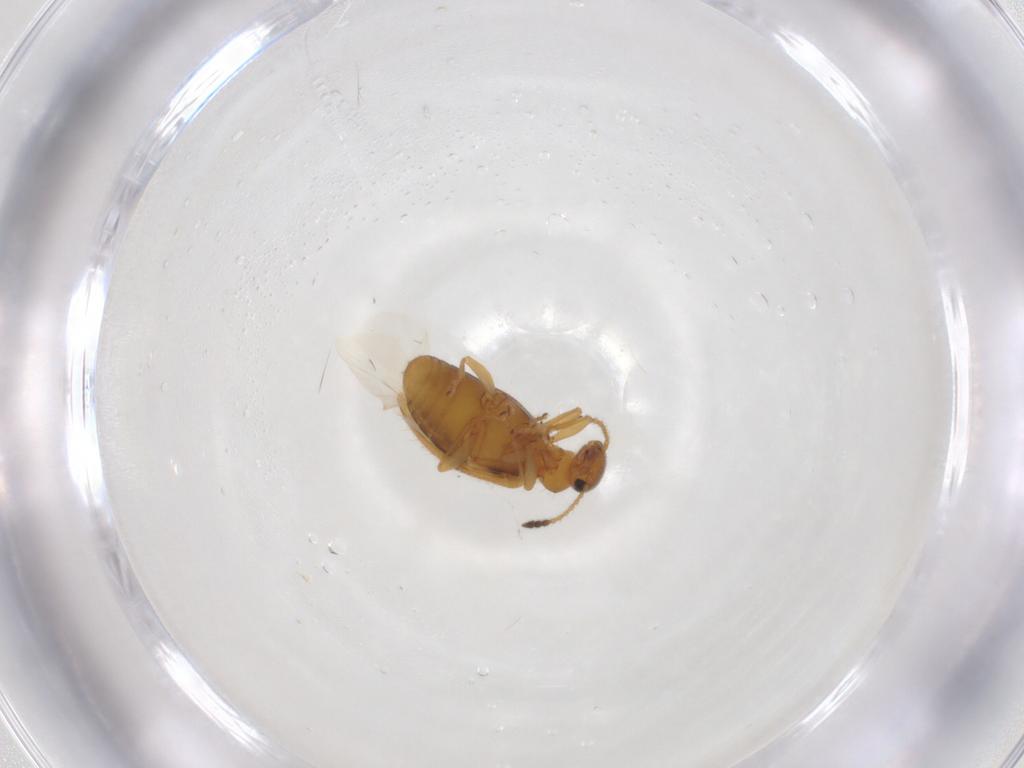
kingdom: Animalia
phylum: Arthropoda
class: Insecta
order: Coleoptera
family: Anthicidae
